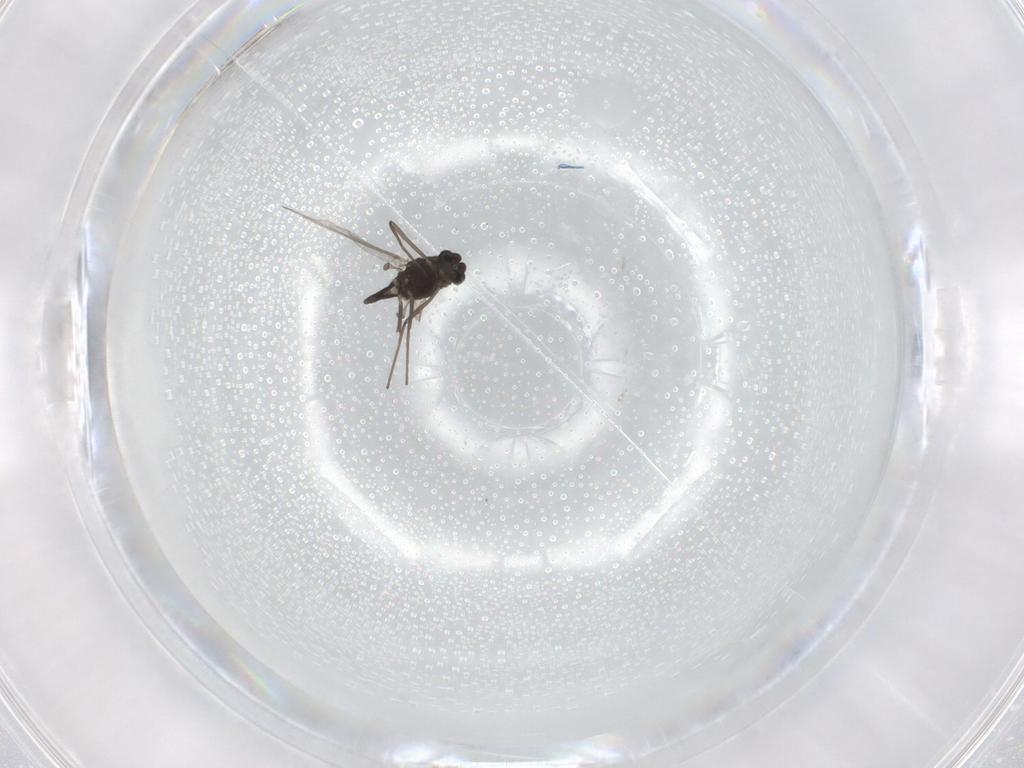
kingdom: Animalia
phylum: Arthropoda
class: Insecta
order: Diptera
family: Chironomidae
